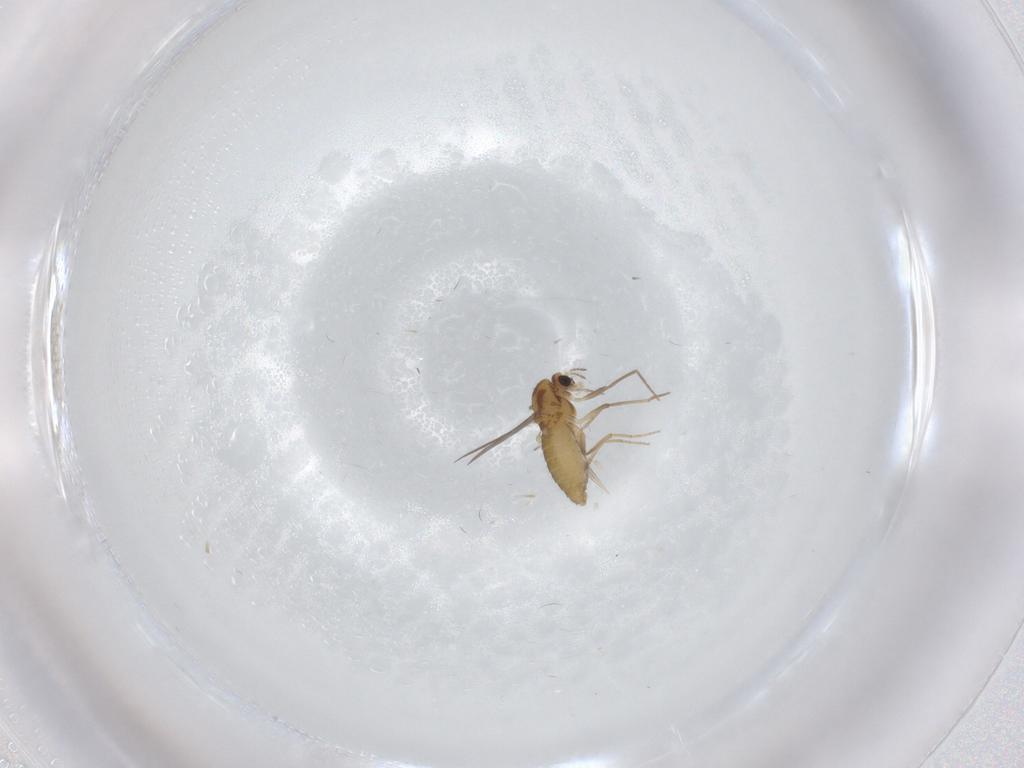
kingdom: Animalia
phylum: Arthropoda
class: Insecta
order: Diptera
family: Chironomidae
